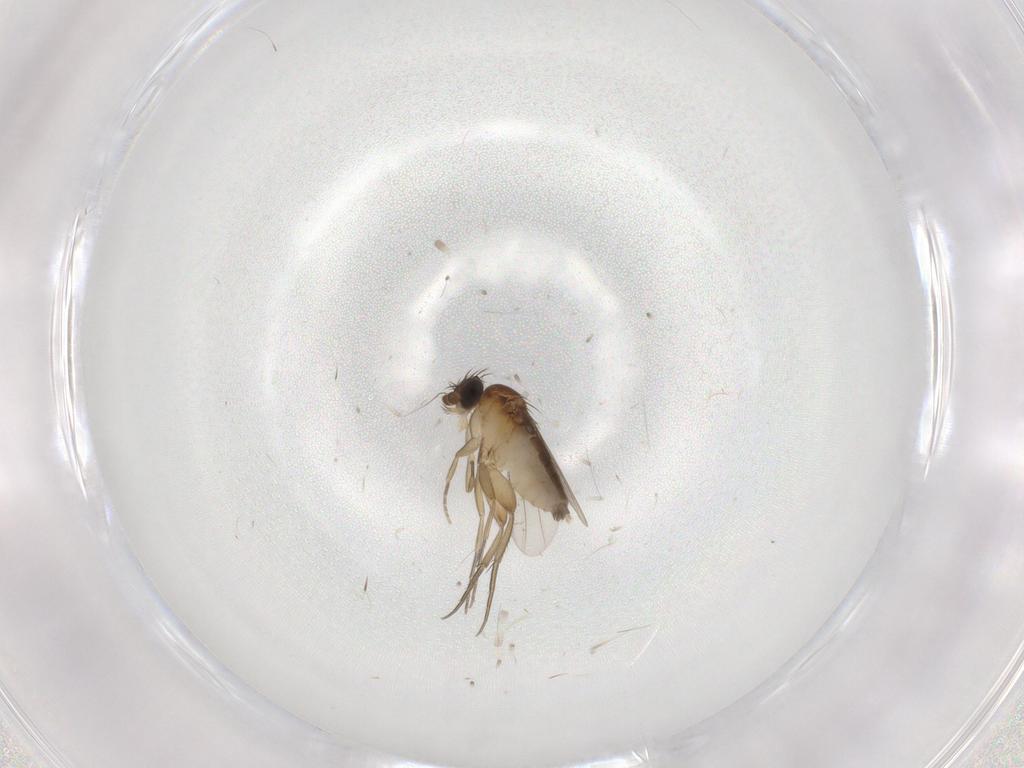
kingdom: Animalia
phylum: Arthropoda
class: Insecta
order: Diptera
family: Phoridae
